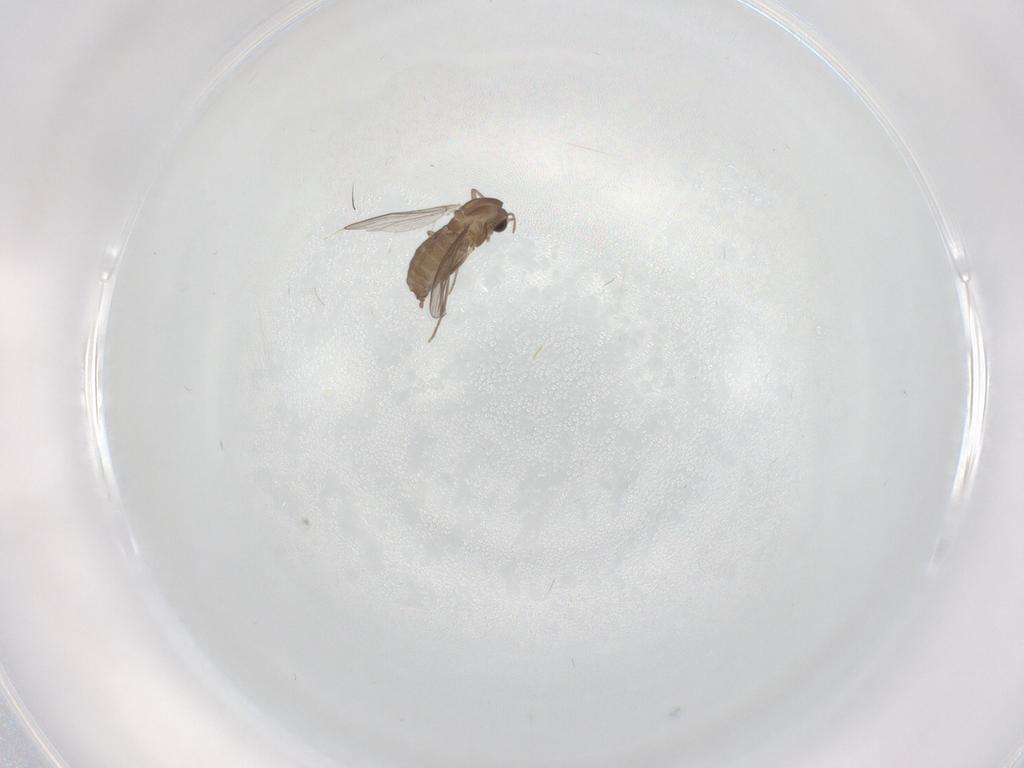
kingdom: Animalia
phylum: Arthropoda
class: Insecta
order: Diptera
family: Chironomidae
